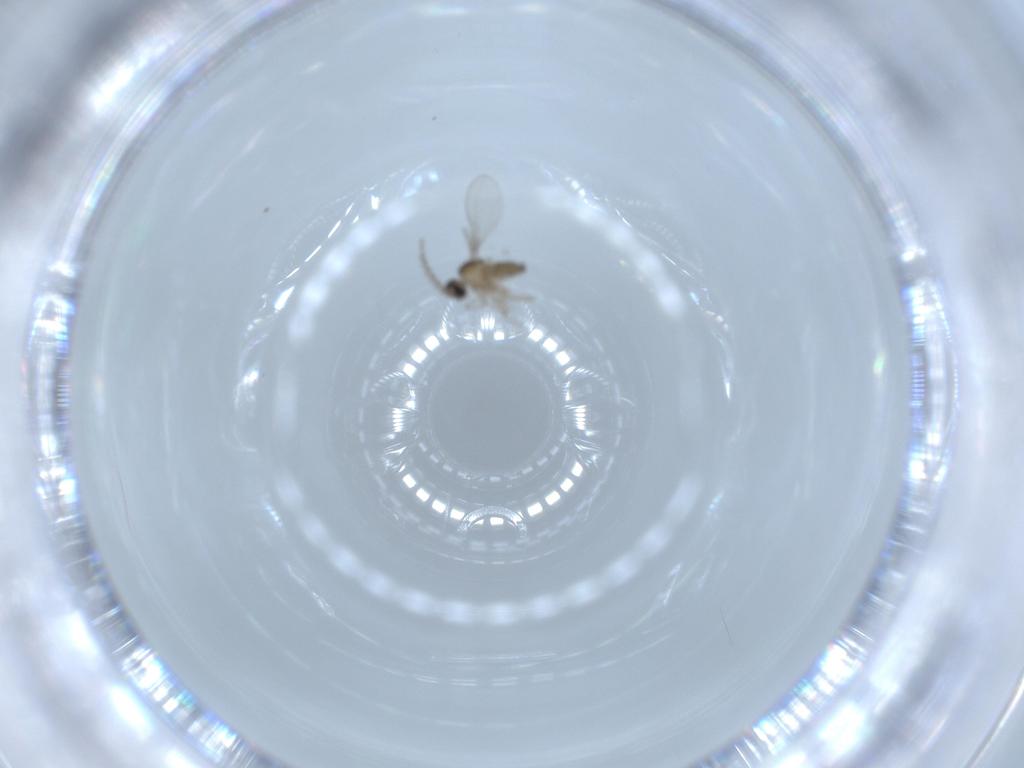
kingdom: Animalia
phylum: Arthropoda
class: Insecta
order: Diptera
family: Cecidomyiidae
